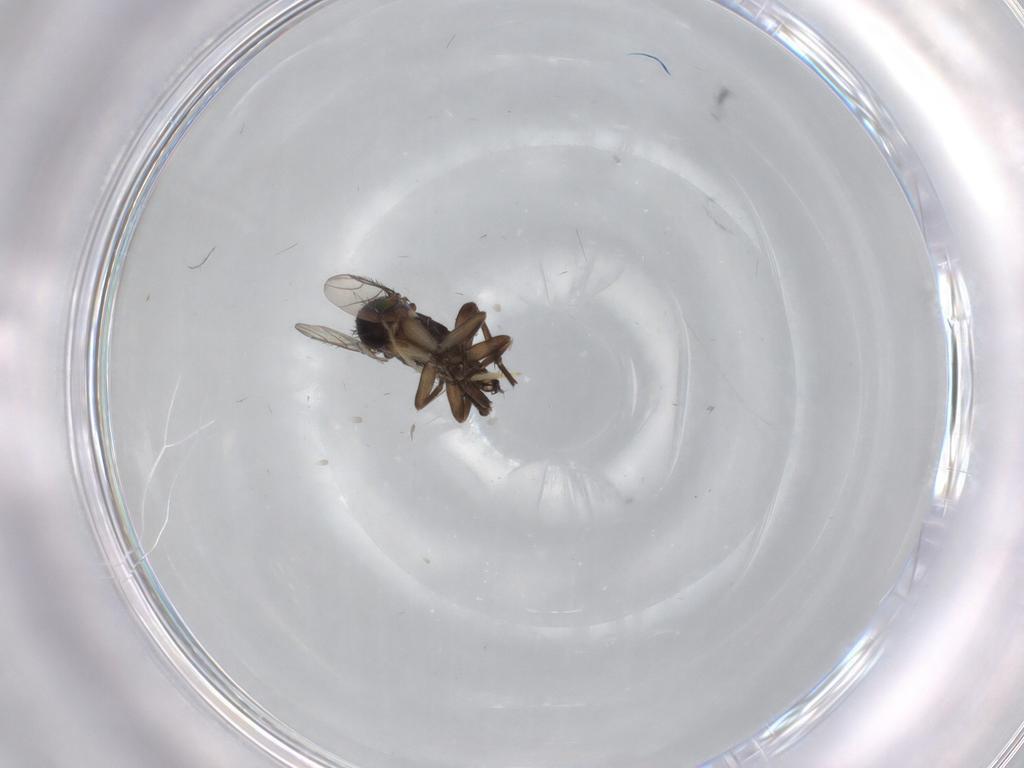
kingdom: Animalia
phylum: Arthropoda
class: Insecta
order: Diptera
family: Phoridae
